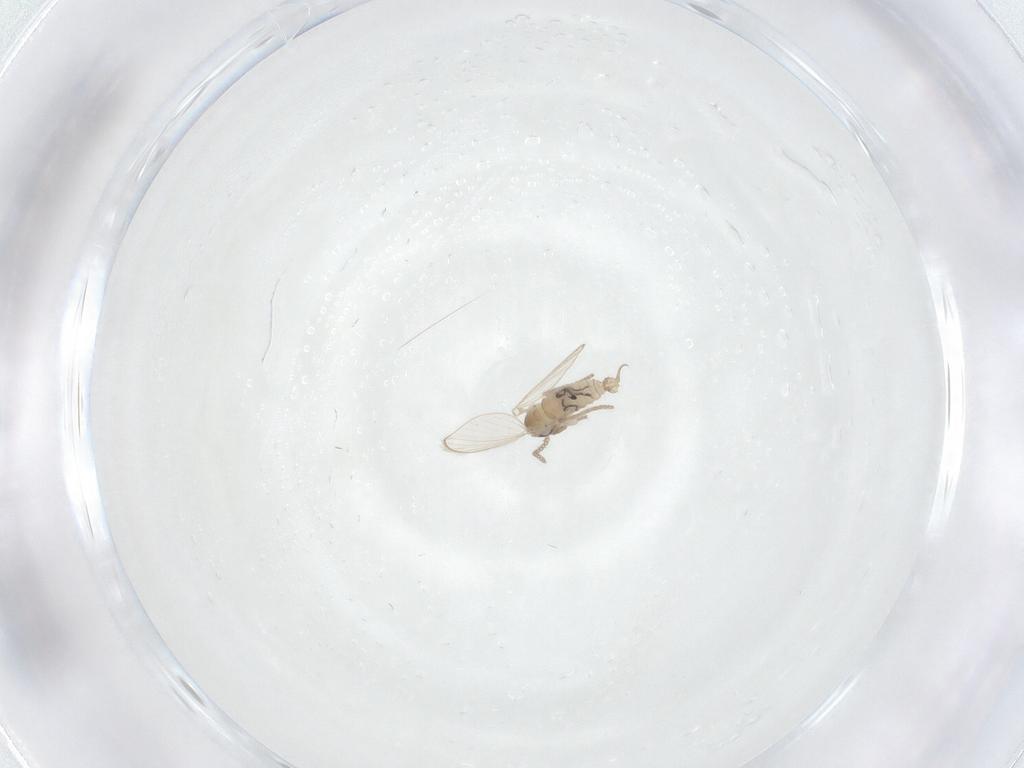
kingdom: Animalia
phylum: Arthropoda
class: Insecta
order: Diptera
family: Psychodidae
